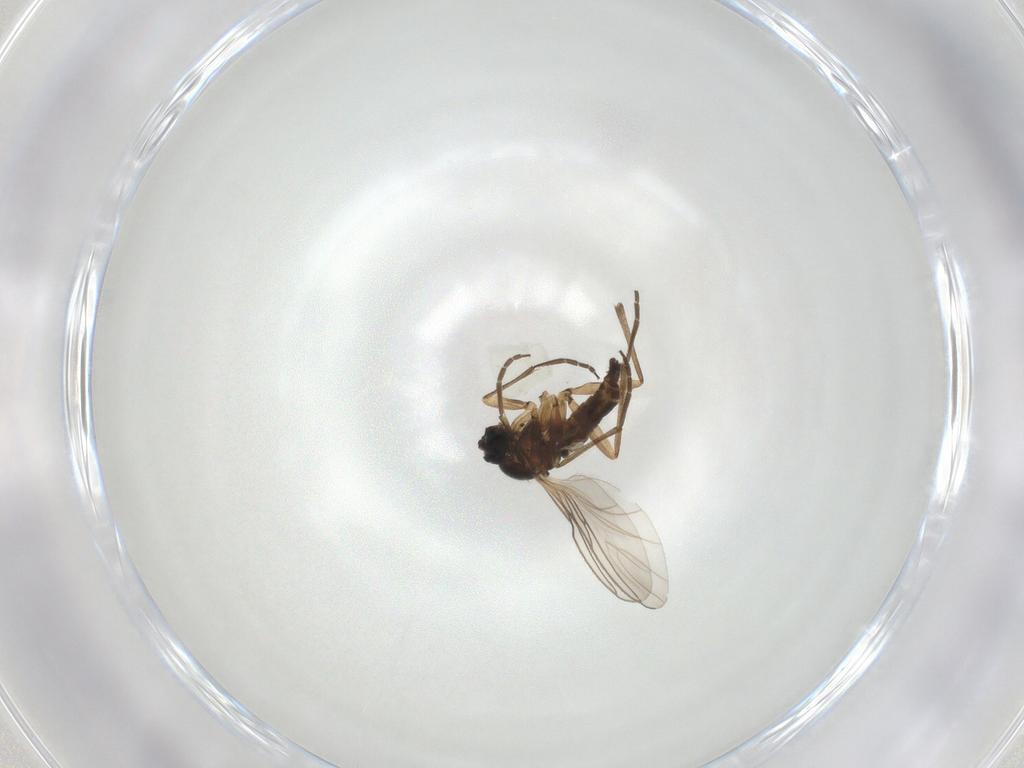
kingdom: Animalia
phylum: Arthropoda
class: Insecta
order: Diptera
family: Sciaridae
